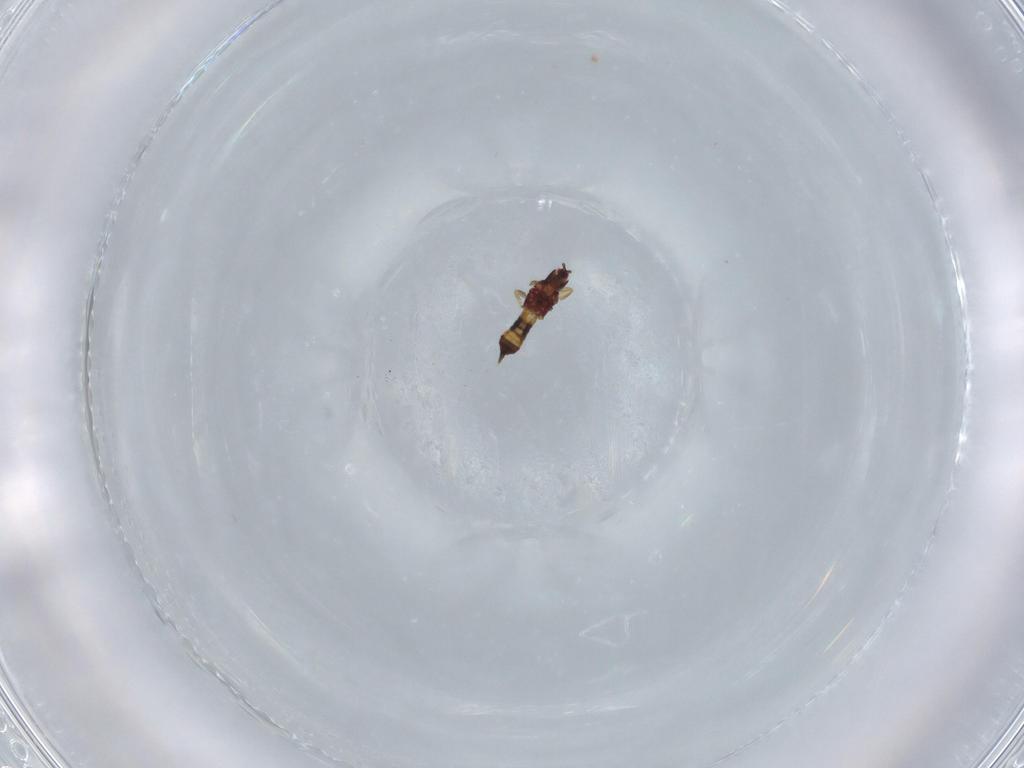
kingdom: Animalia
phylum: Arthropoda
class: Insecta
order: Thysanoptera
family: Phlaeothripidae
